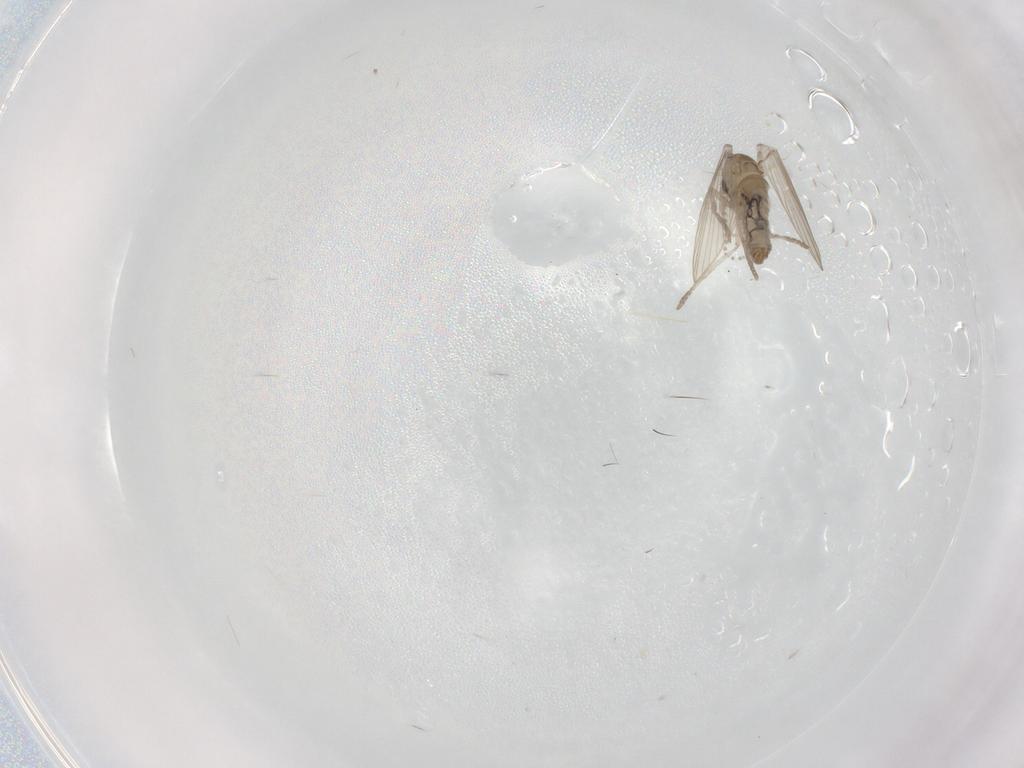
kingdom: Animalia
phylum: Arthropoda
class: Insecta
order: Diptera
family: Psychodidae
